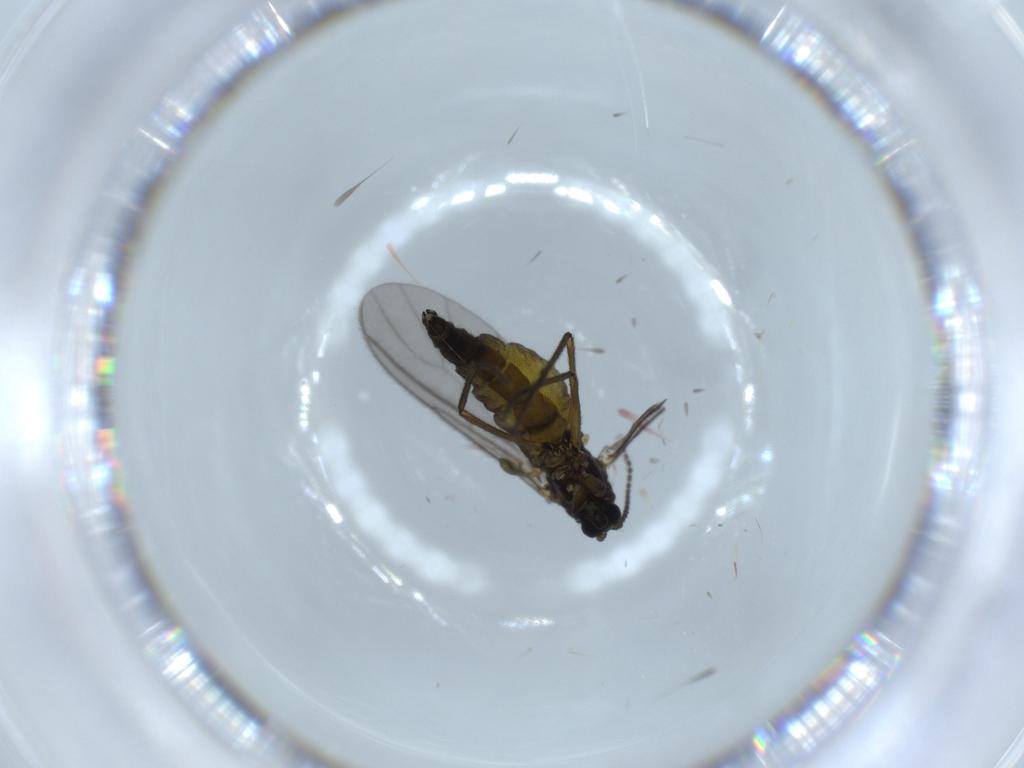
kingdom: Animalia
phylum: Arthropoda
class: Insecta
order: Diptera
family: Sciaridae
